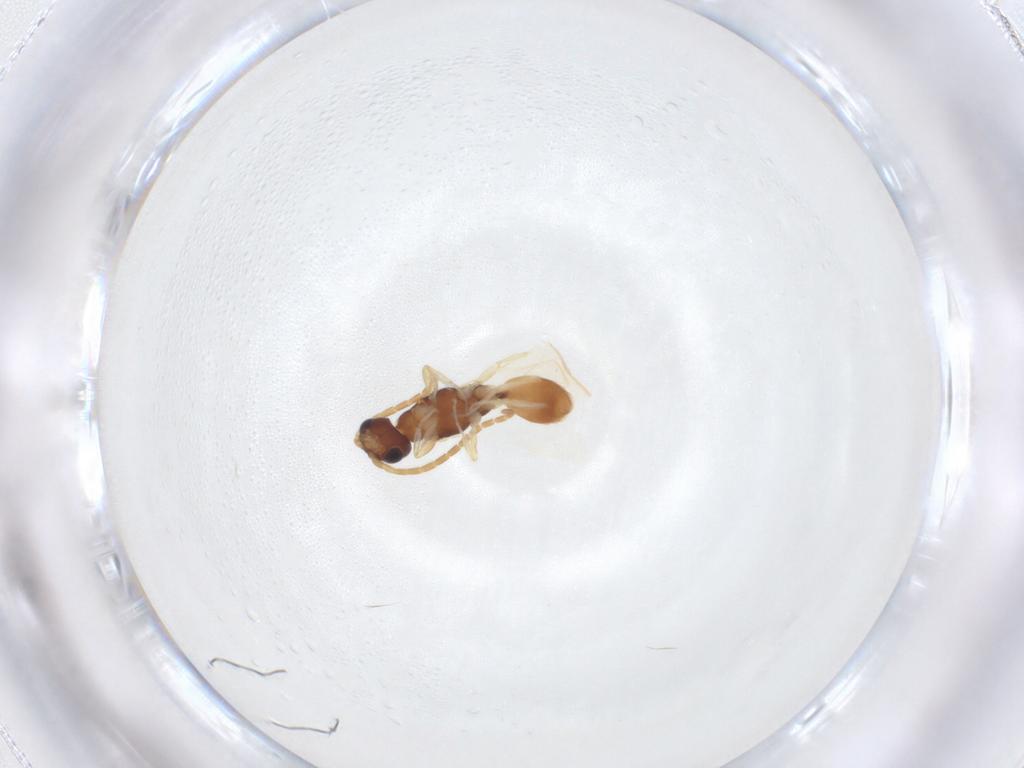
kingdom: Animalia
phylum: Arthropoda
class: Insecta
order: Hymenoptera
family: Bethylidae
